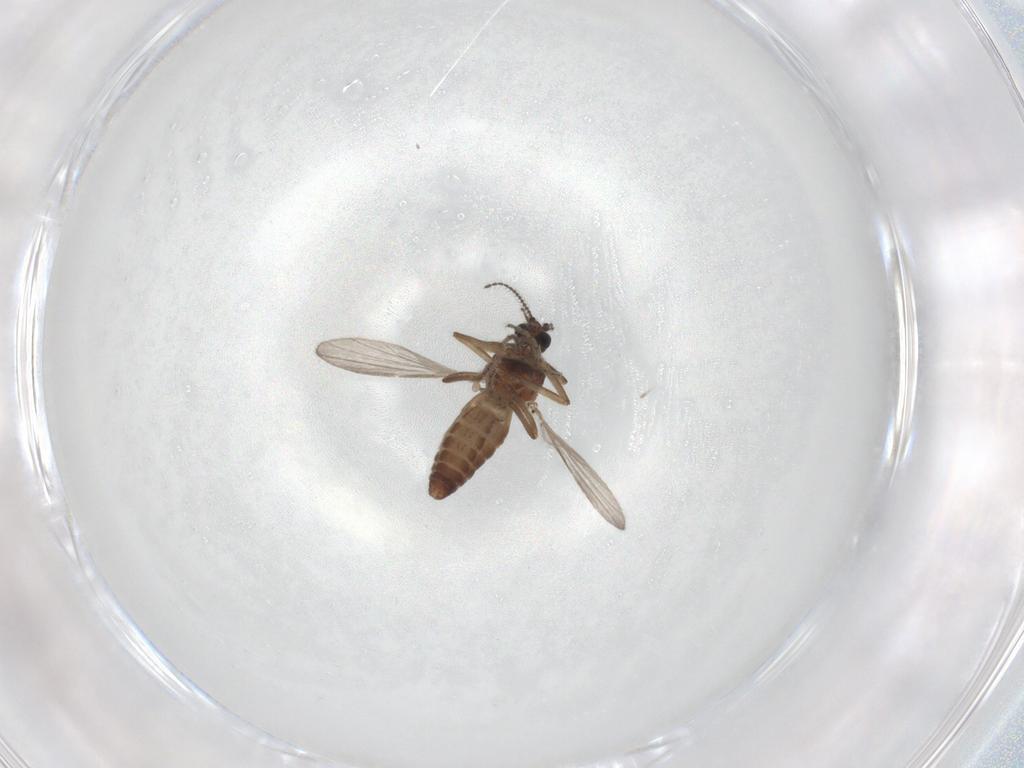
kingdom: Animalia
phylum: Arthropoda
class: Insecta
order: Diptera
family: Ceratopogonidae
